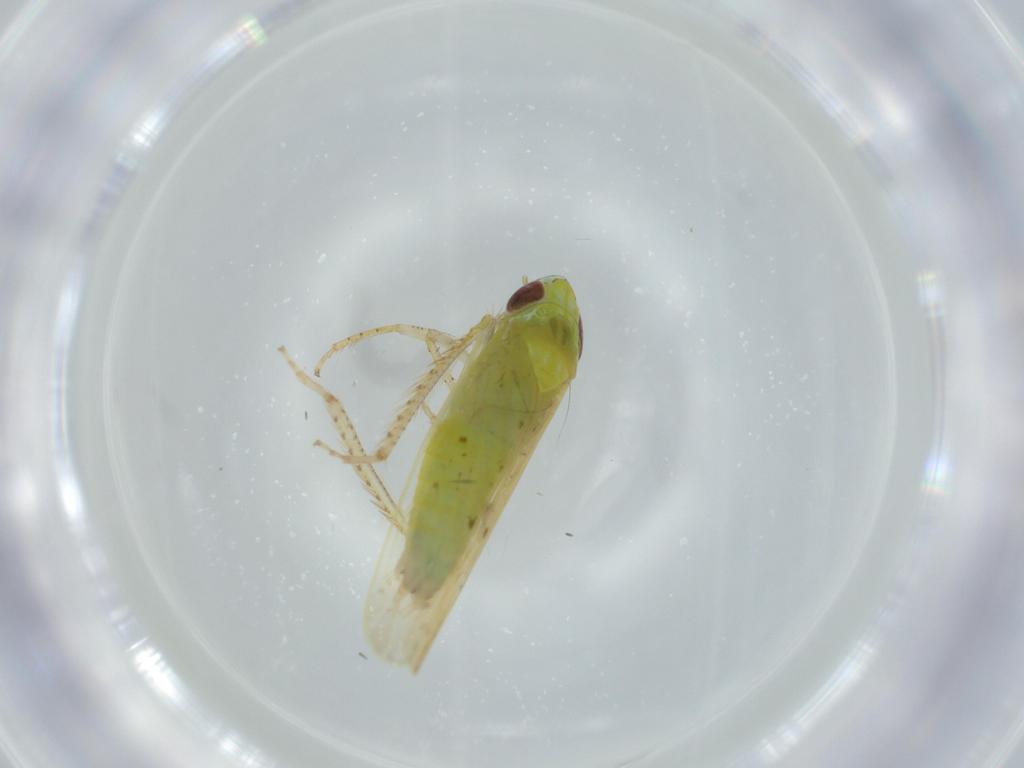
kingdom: Animalia
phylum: Arthropoda
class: Insecta
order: Hemiptera
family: Cicadellidae
